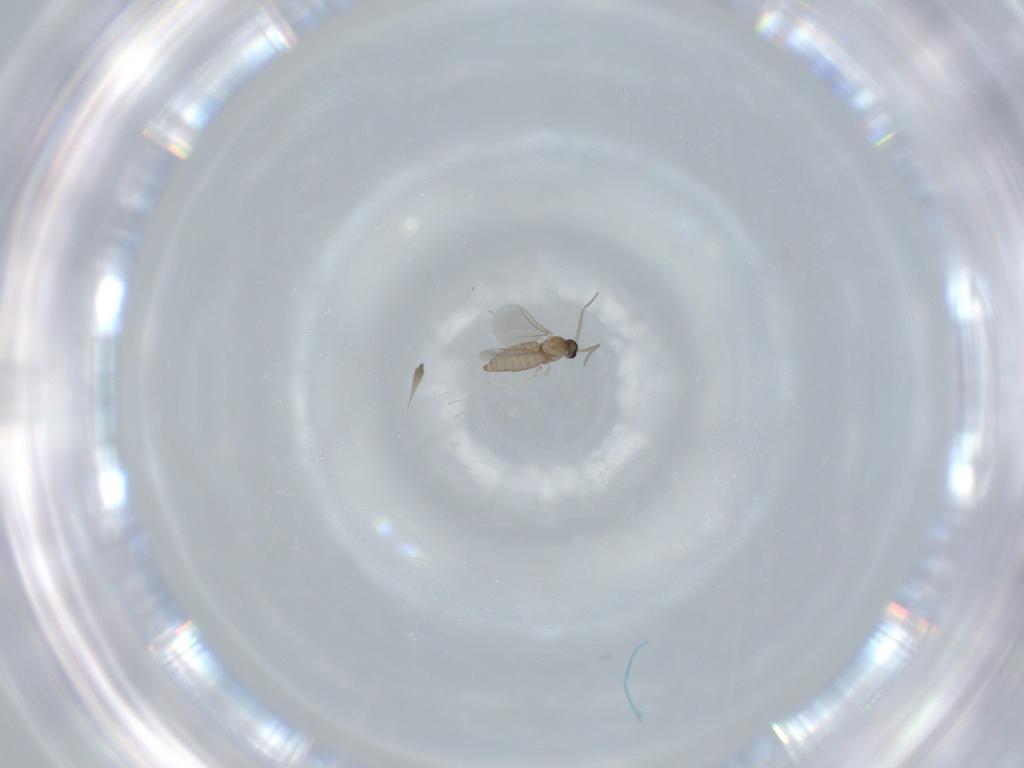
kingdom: Animalia
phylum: Arthropoda
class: Insecta
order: Diptera
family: Cecidomyiidae
